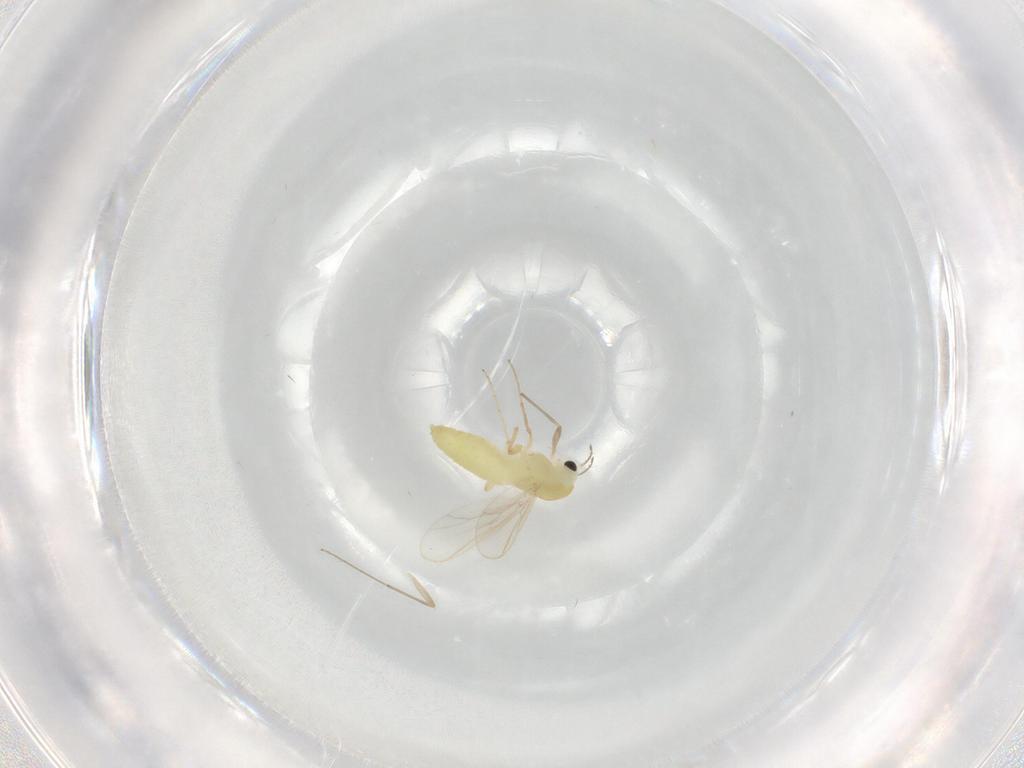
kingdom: Animalia
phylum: Arthropoda
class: Insecta
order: Diptera
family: Chironomidae
